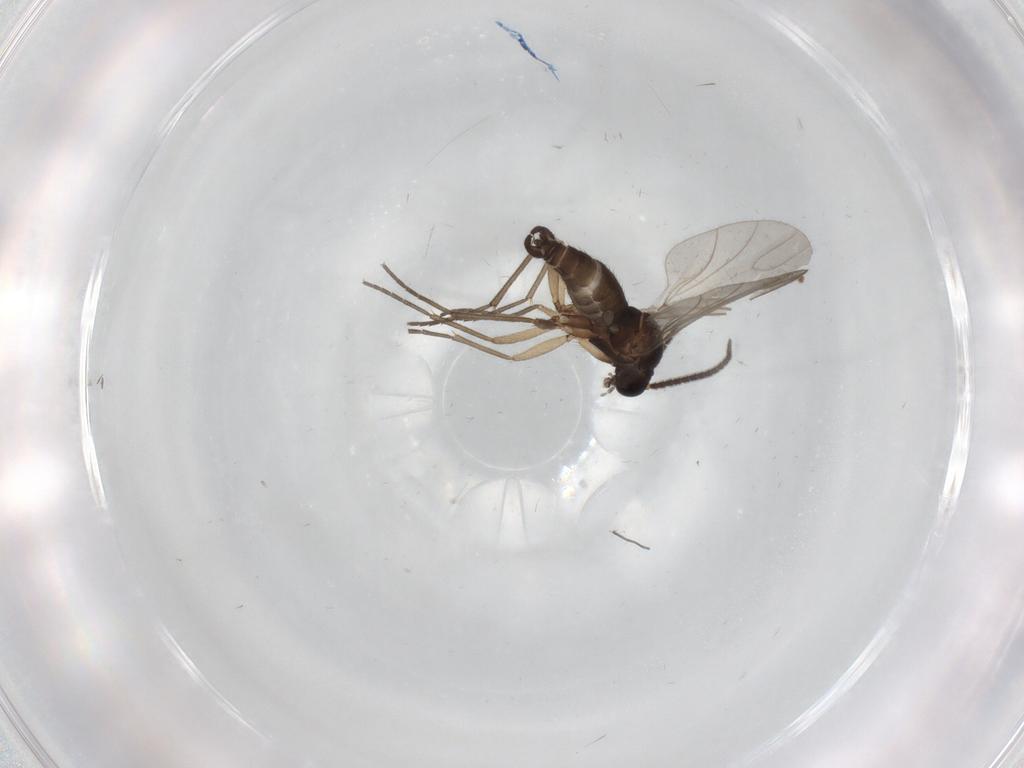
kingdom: Animalia
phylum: Arthropoda
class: Insecta
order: Diptera
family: Sciaridae
